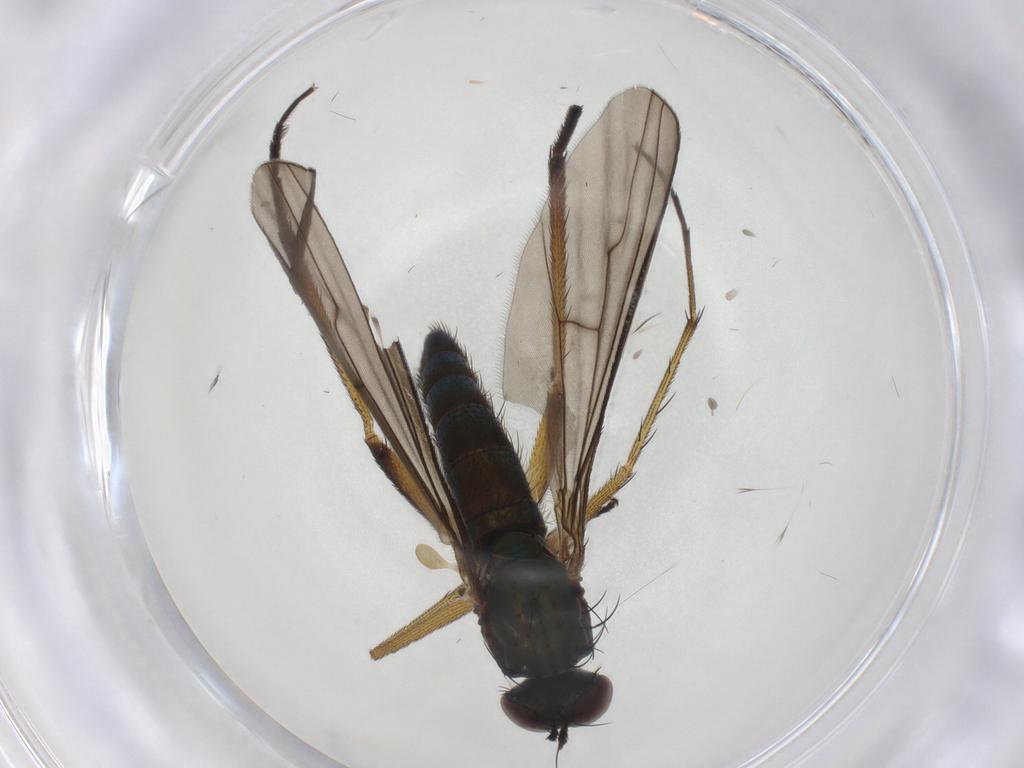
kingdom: Animalia
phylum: Arthropoda
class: Insecta
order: Diptera
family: Dolichopodidae
